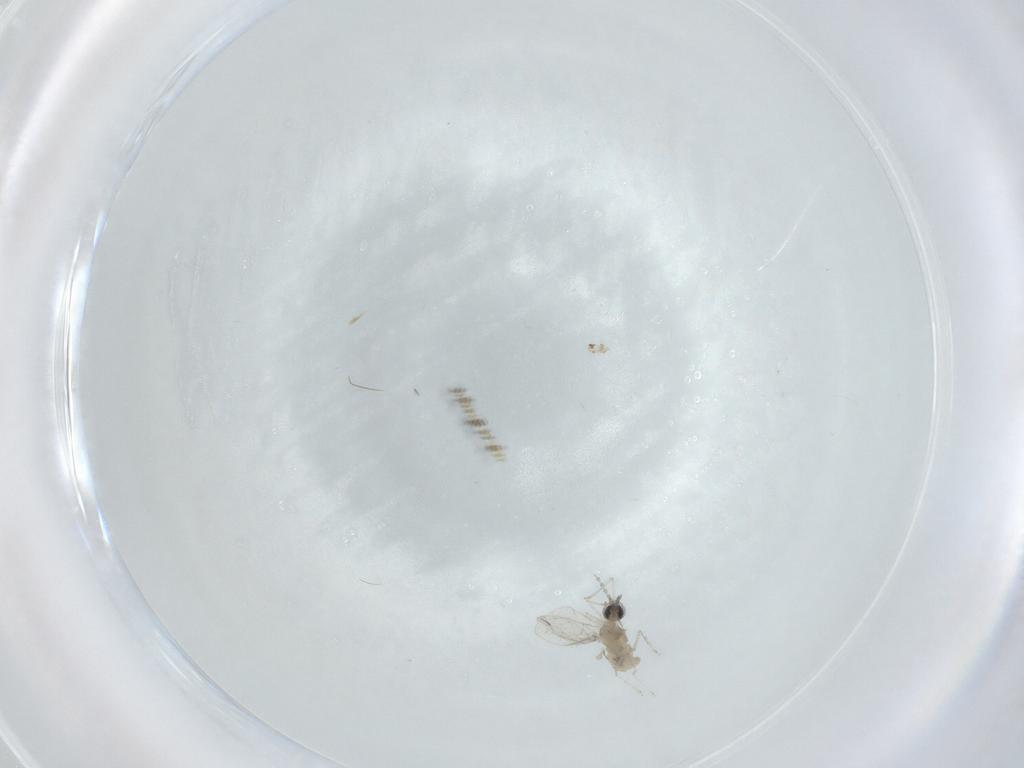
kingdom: Animalia
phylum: Arthropoda
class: Insecta
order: Diptera
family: Cecidomyiidae
